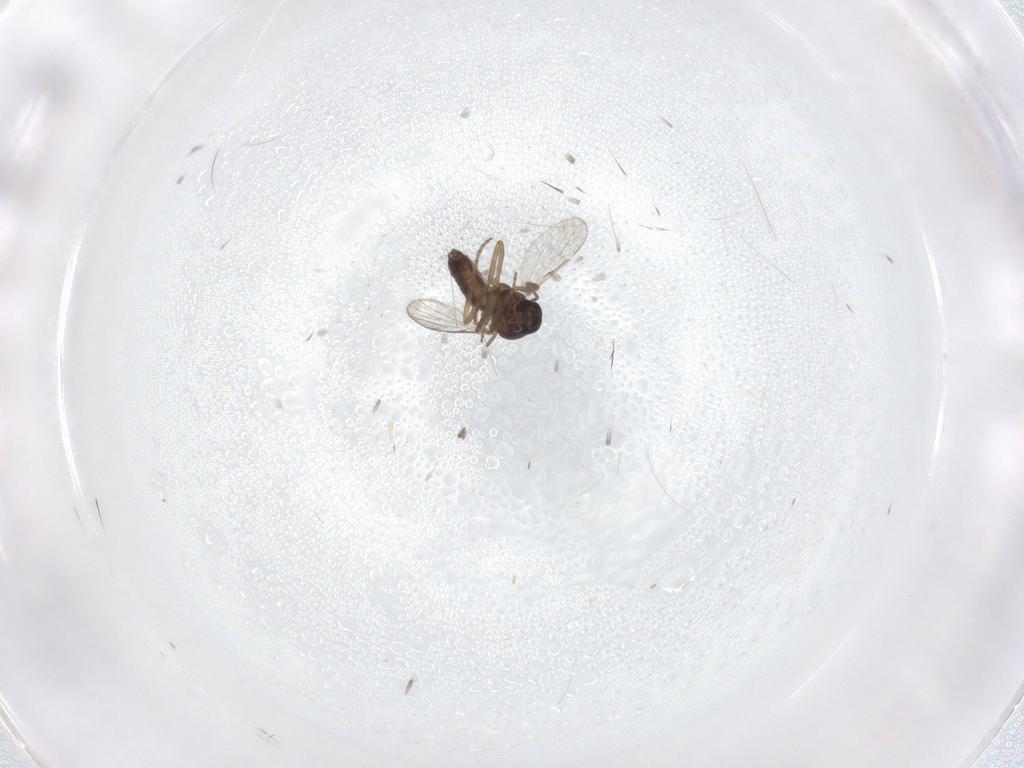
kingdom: Animalia
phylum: Arthropoda
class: Insecta
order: Diptera
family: Ceratopogonidae
